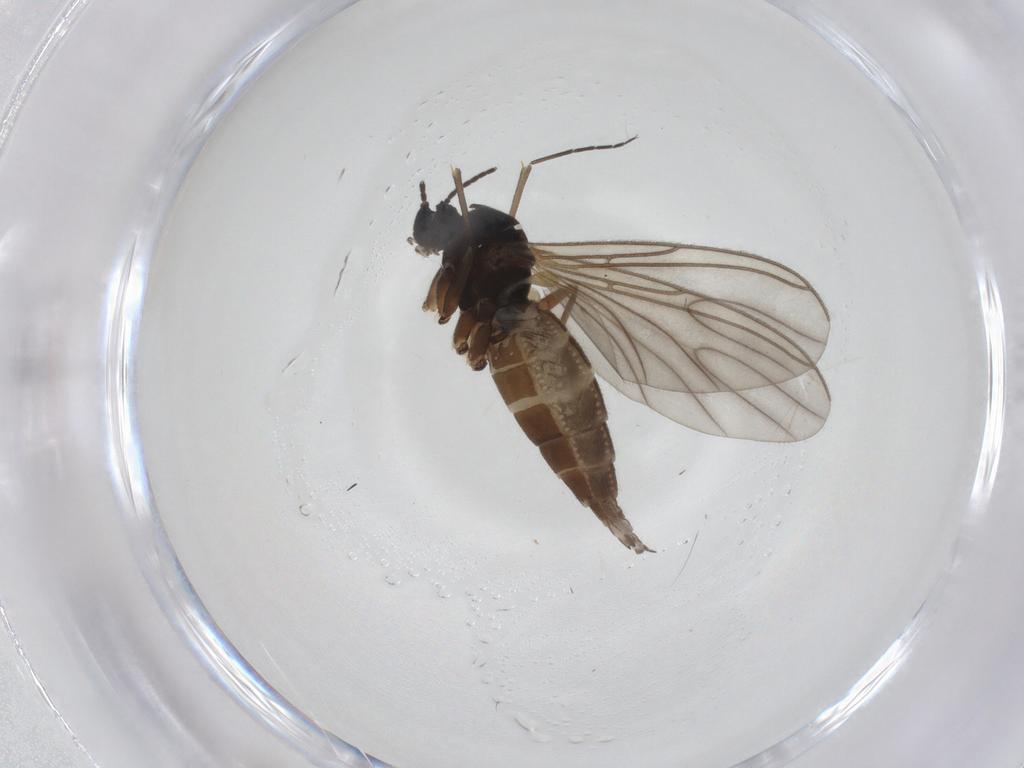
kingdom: Animalia
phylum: Arthropoda
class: Insecta
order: Diptera
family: Sciaridae
